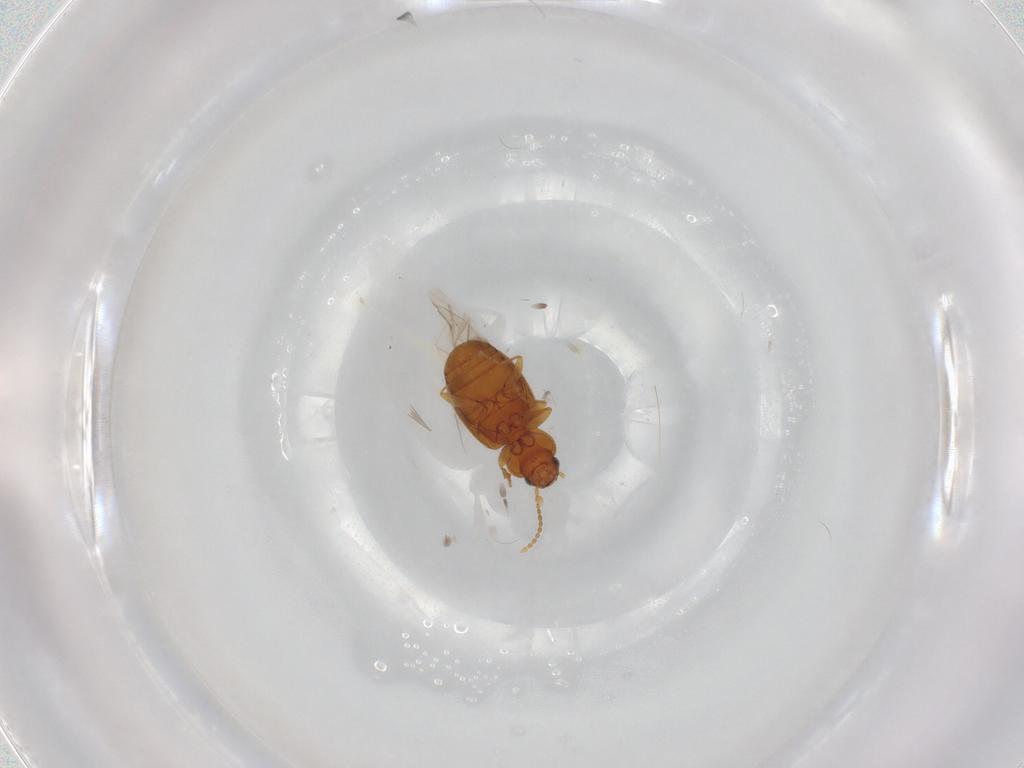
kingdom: Animalia
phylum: Arthropoda
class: Insecta
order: Coleoptera
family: Carabidae
